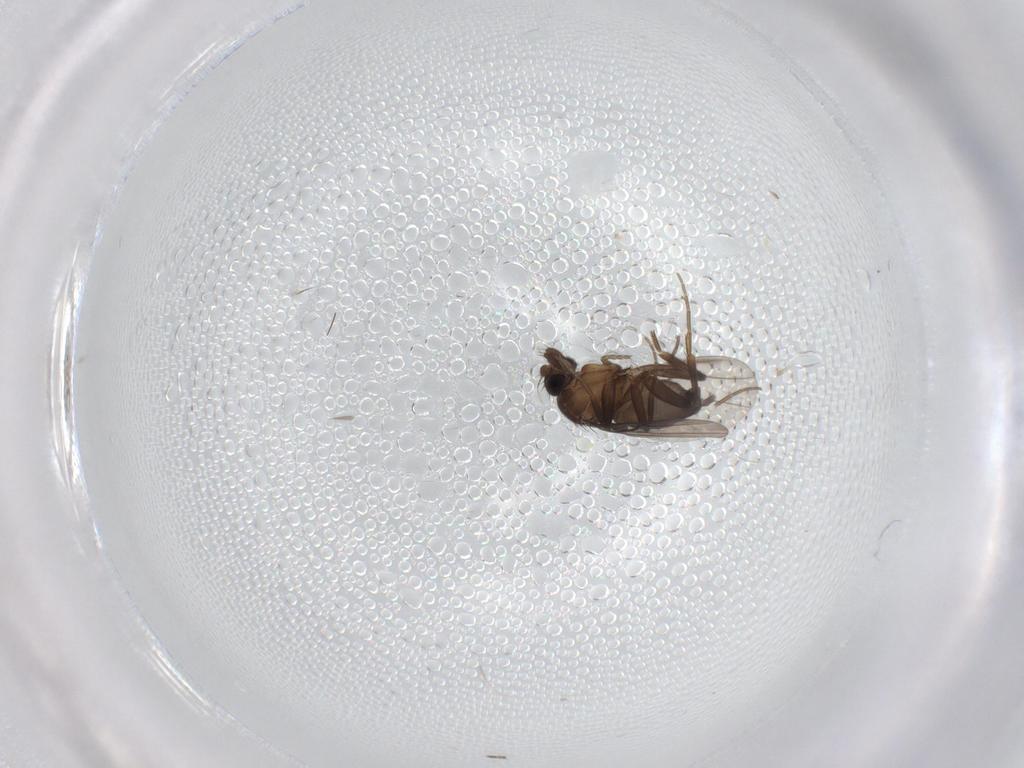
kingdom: Animalia
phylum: Arthropoda
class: Insecta
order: Diptera
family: Phoridae
